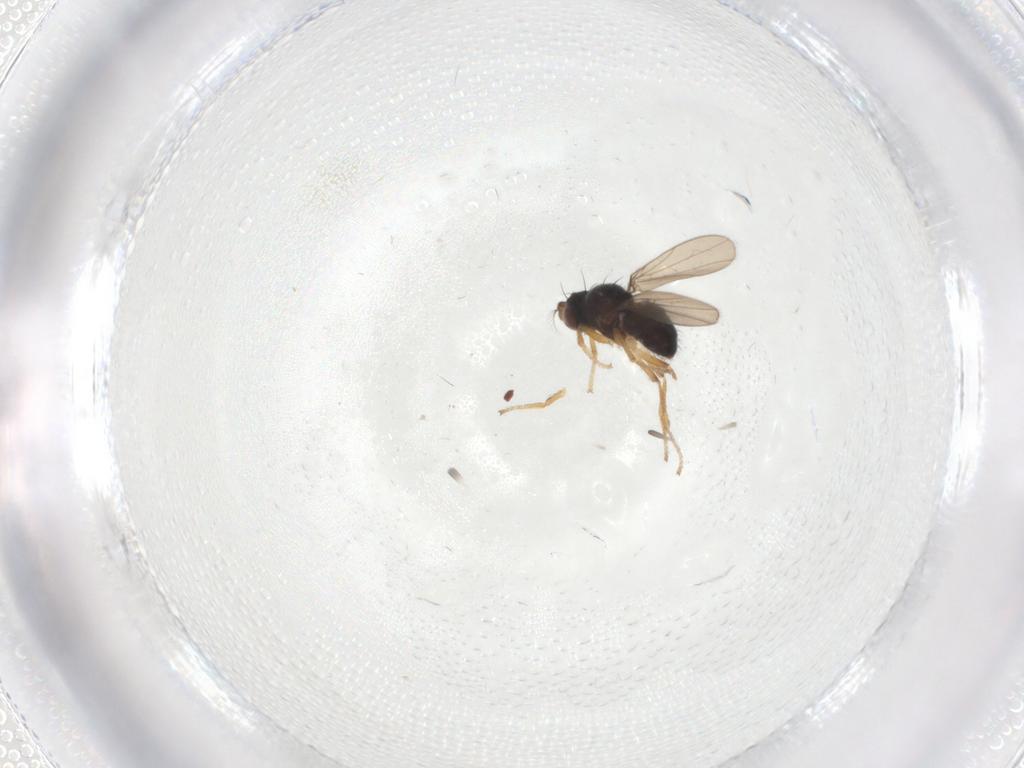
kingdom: Animalia
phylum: Arthropoda
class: Insecta
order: Diptera
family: Ephydridae
